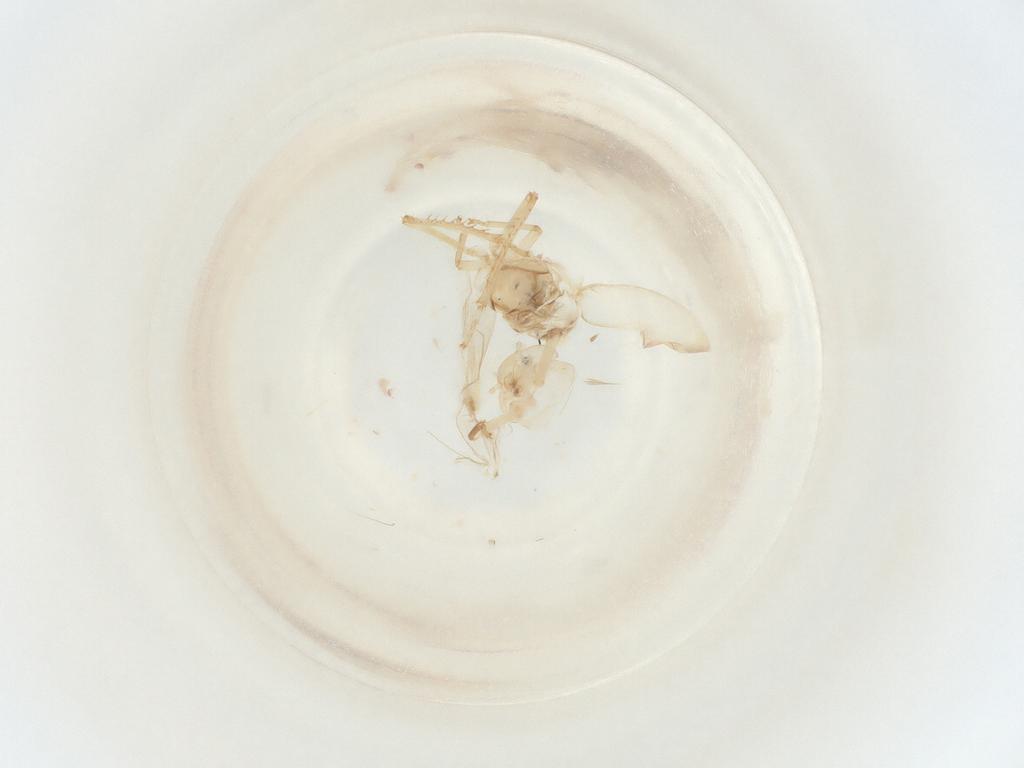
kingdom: Animalia
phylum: Arthropoda
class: Insecta
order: Hemiptera
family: Cicadellidae
